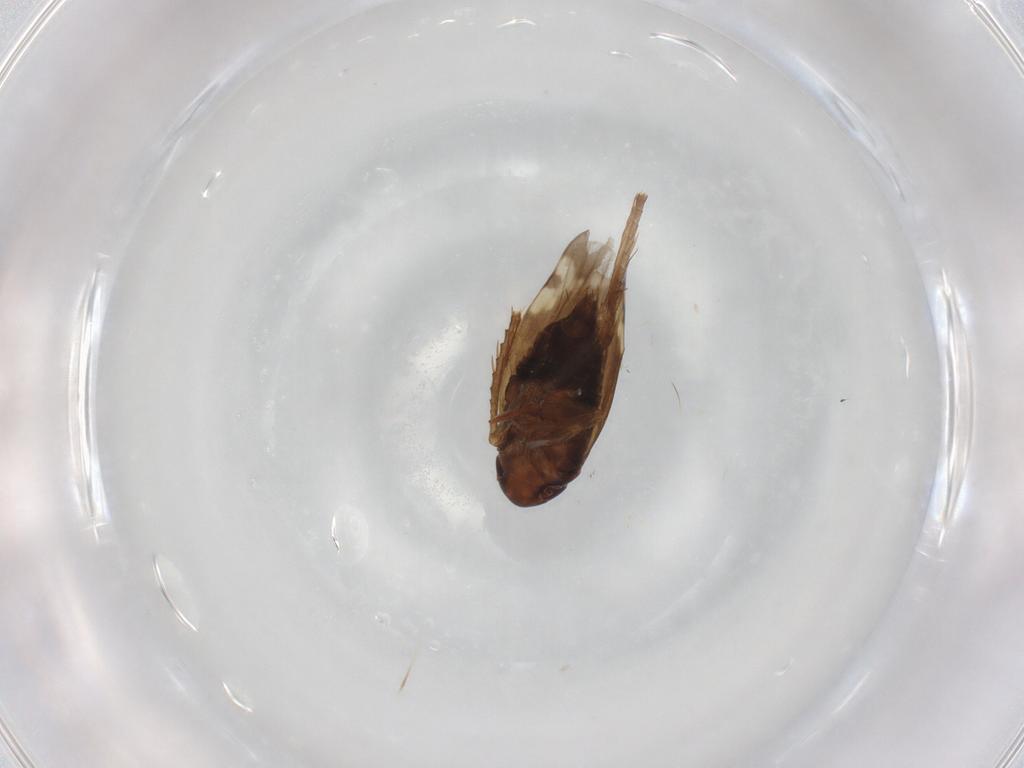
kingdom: Animalia
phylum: Arthropoda
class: Insecta
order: Hemiptera
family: Cicadellidae
